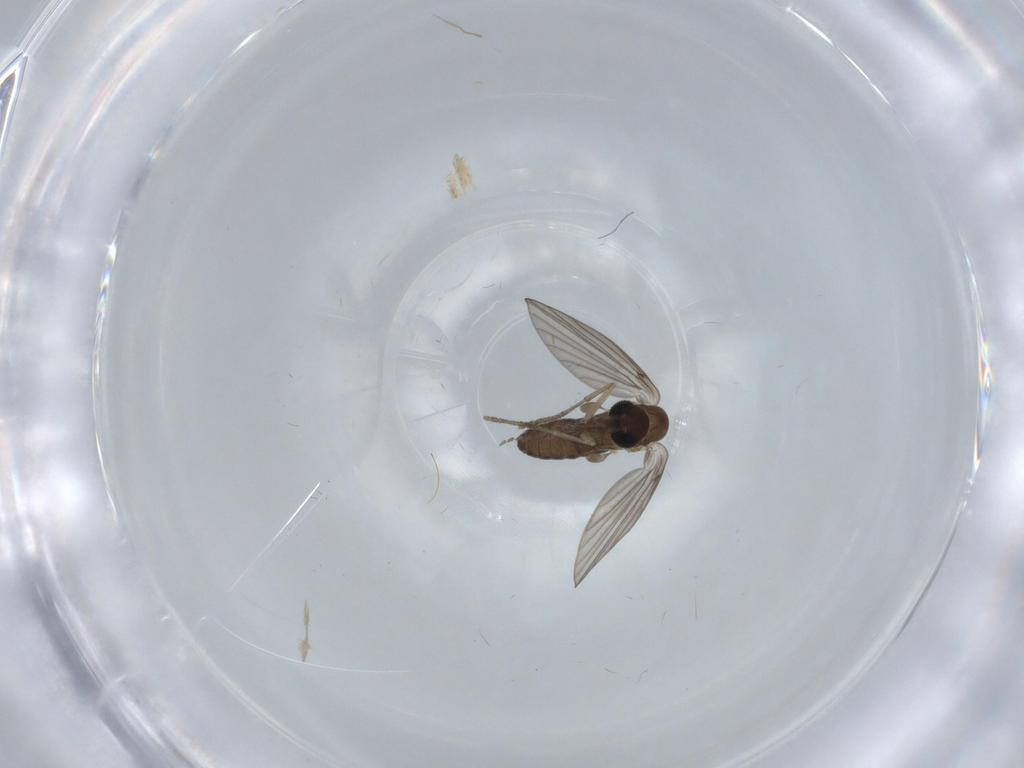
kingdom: Animalia
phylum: Arthropoda
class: Insecta
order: Diptera
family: Psychodidae
